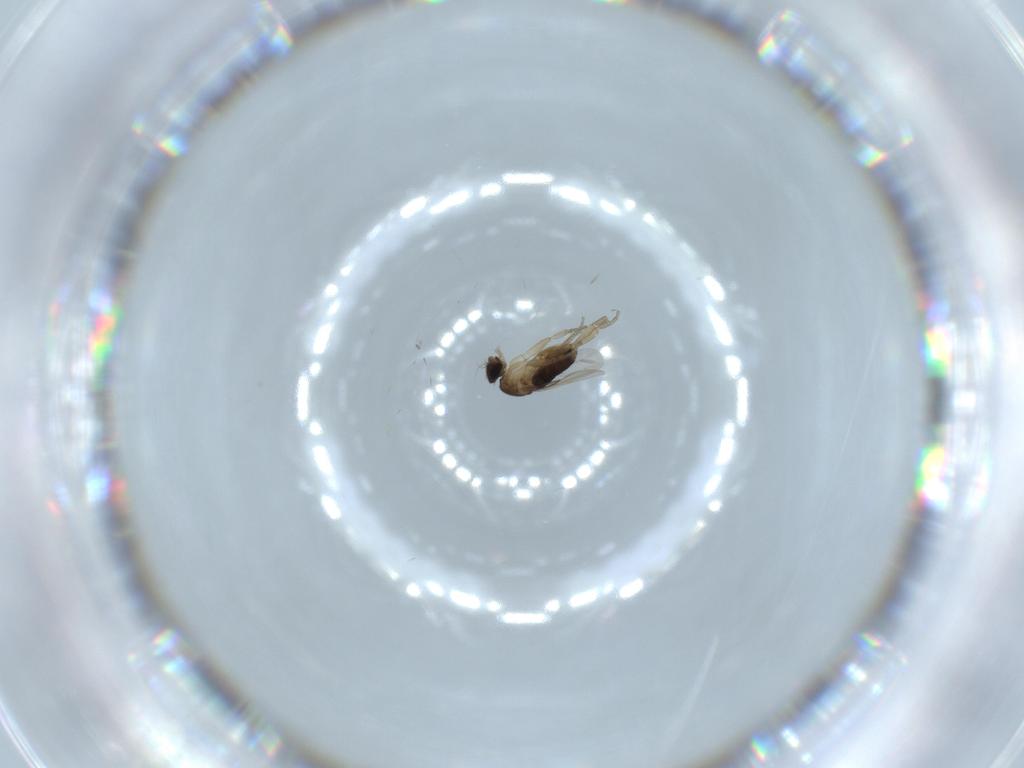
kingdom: Animalia
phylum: Arthropoda
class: Insecta
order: Diptera
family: Phoridae
